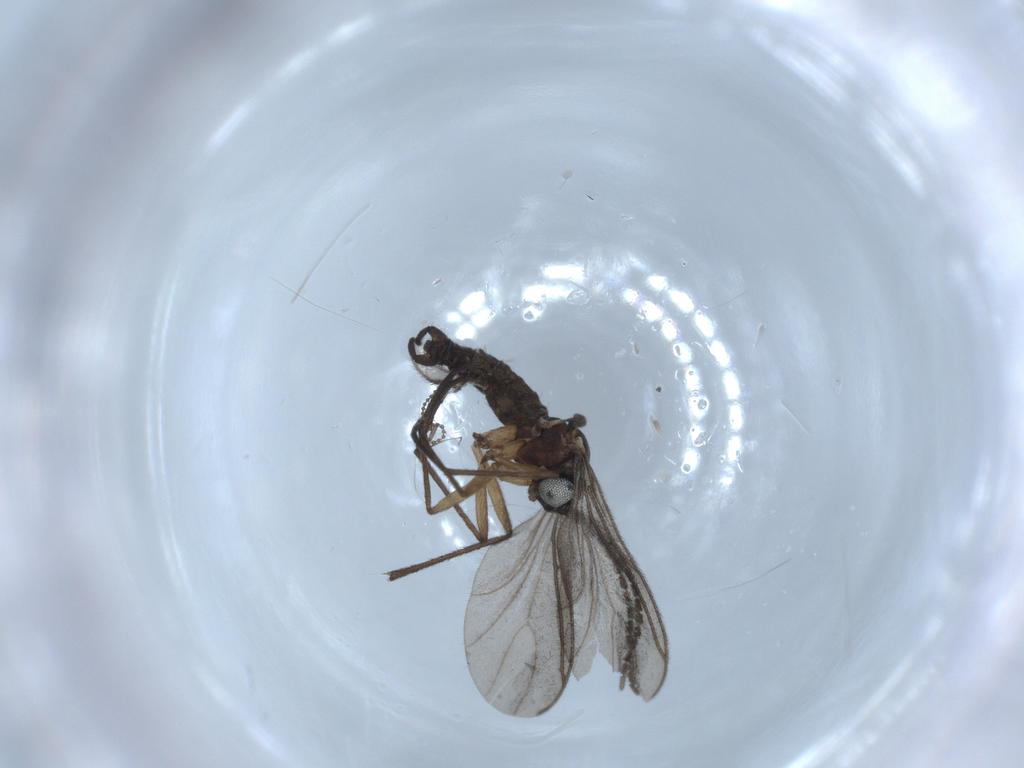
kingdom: Animalia
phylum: Arthropoda
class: Insecta
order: Diptera
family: Cecidomyiidae
